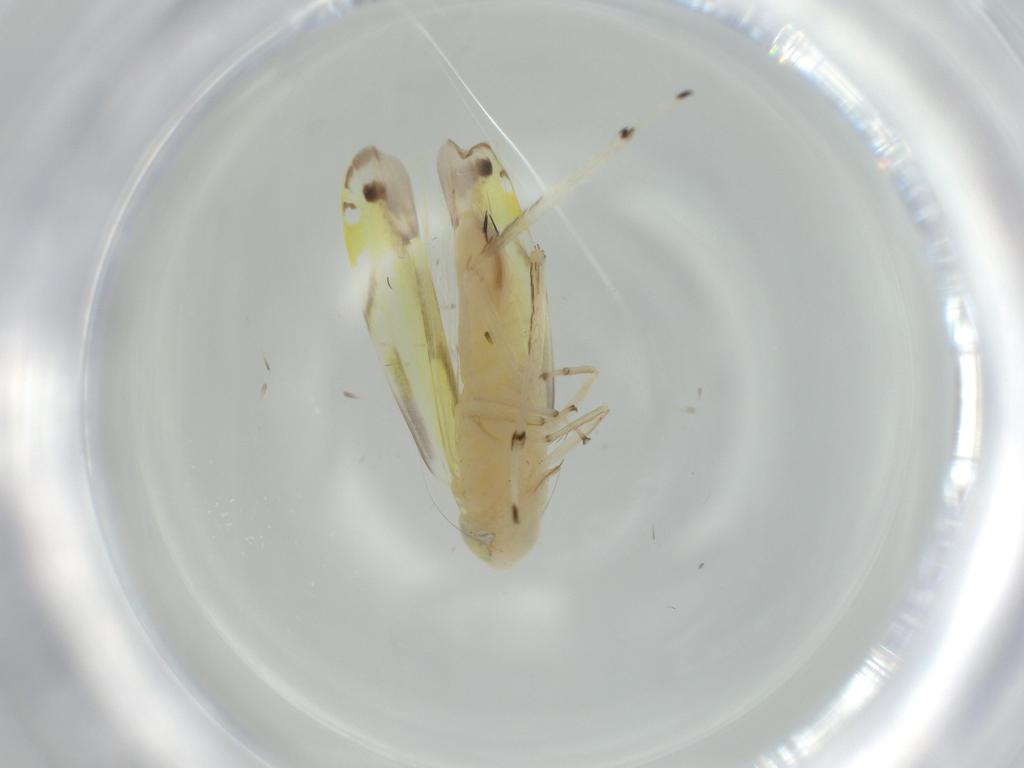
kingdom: Animalia
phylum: Arthropoda
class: Insecta
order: Hemiptera
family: Cicadellidae
